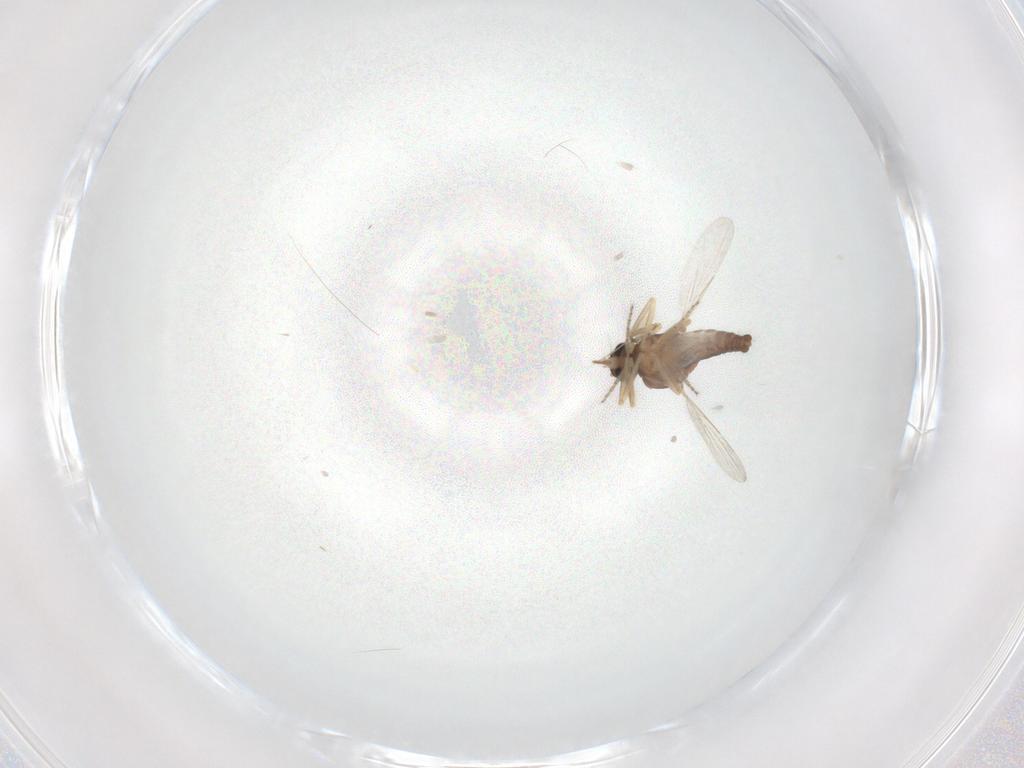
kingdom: Animalia
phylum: Arthropoda
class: Insecta
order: Diptera
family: Ceratopogonidae
